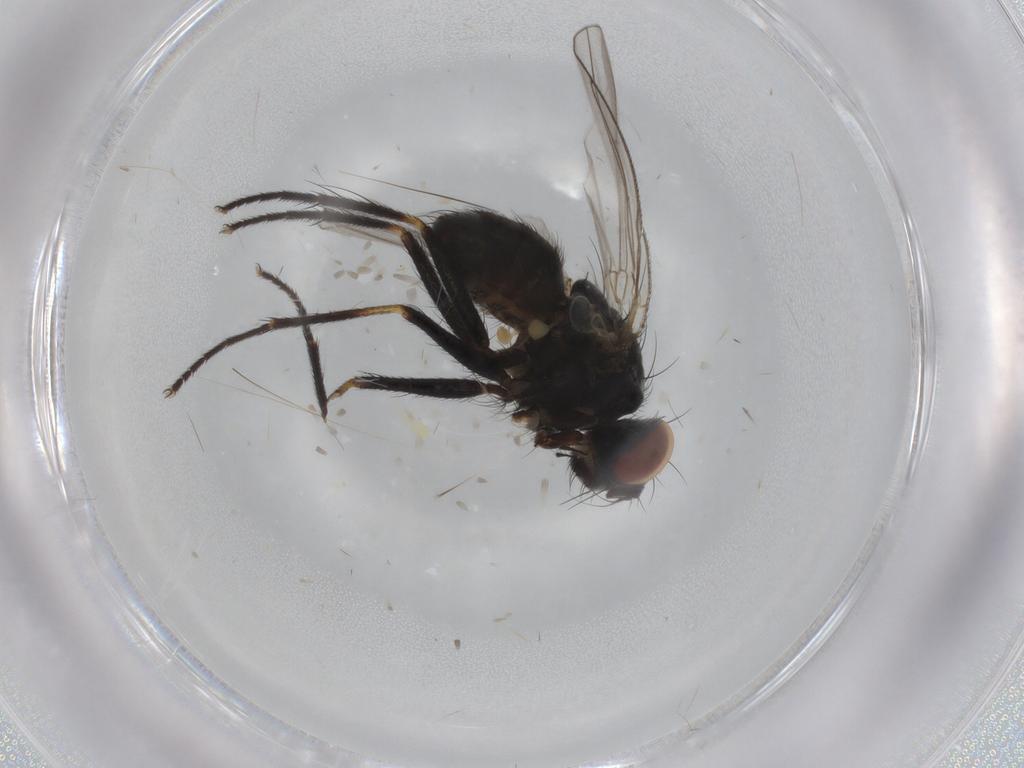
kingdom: Animalia
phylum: Arthropoda
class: Insecta
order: Diptera
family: Muscidae
